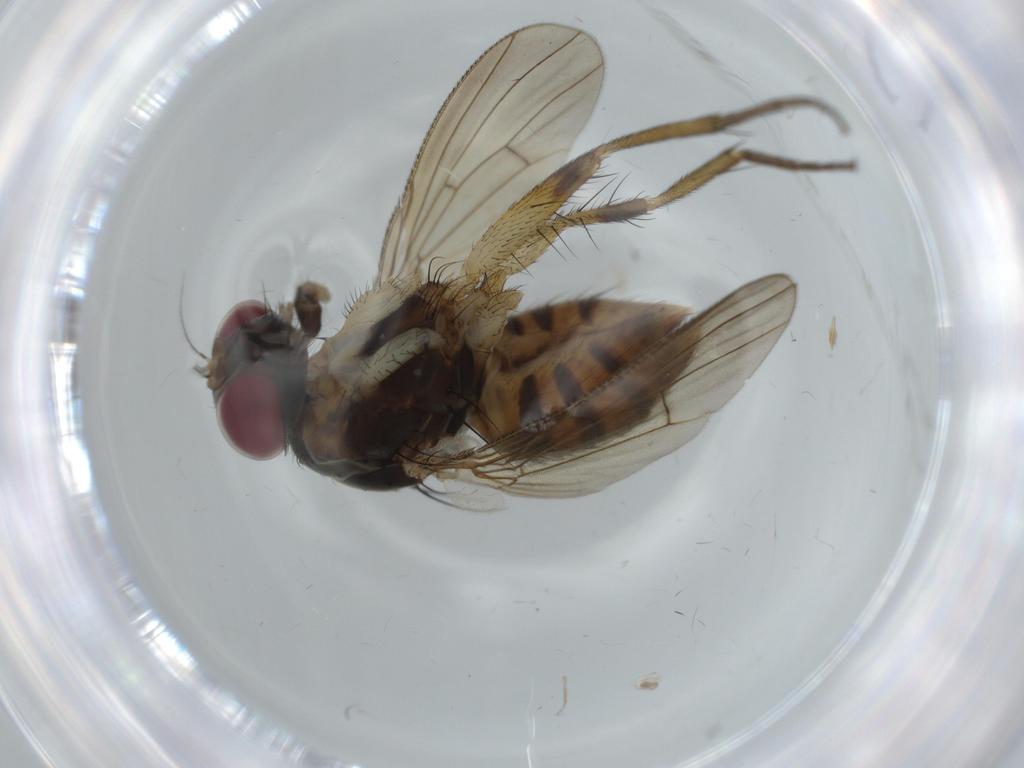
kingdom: Animalia
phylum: Arthropoda
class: Insecta
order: Diptera
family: Muscidae
